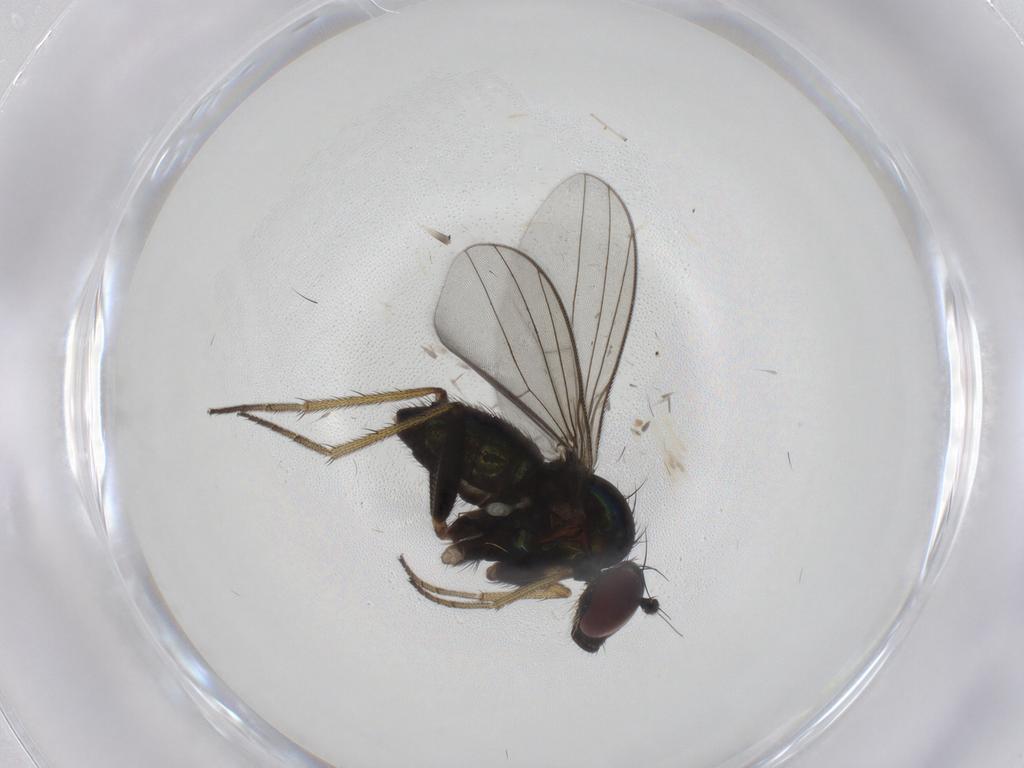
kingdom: Animalia
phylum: Arthropoda
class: Insecta
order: Diptera
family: Dolichopodidae
